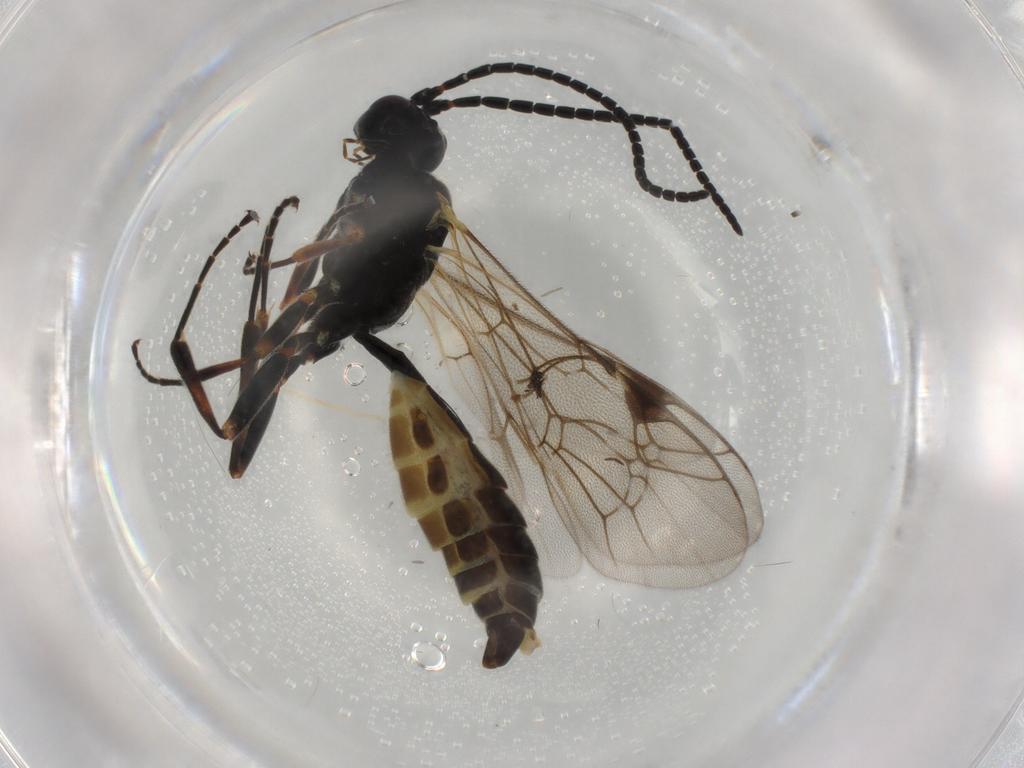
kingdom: Animalia
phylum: Arthropoda
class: Insecta
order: Hymenoptera
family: Ichneumonidae
